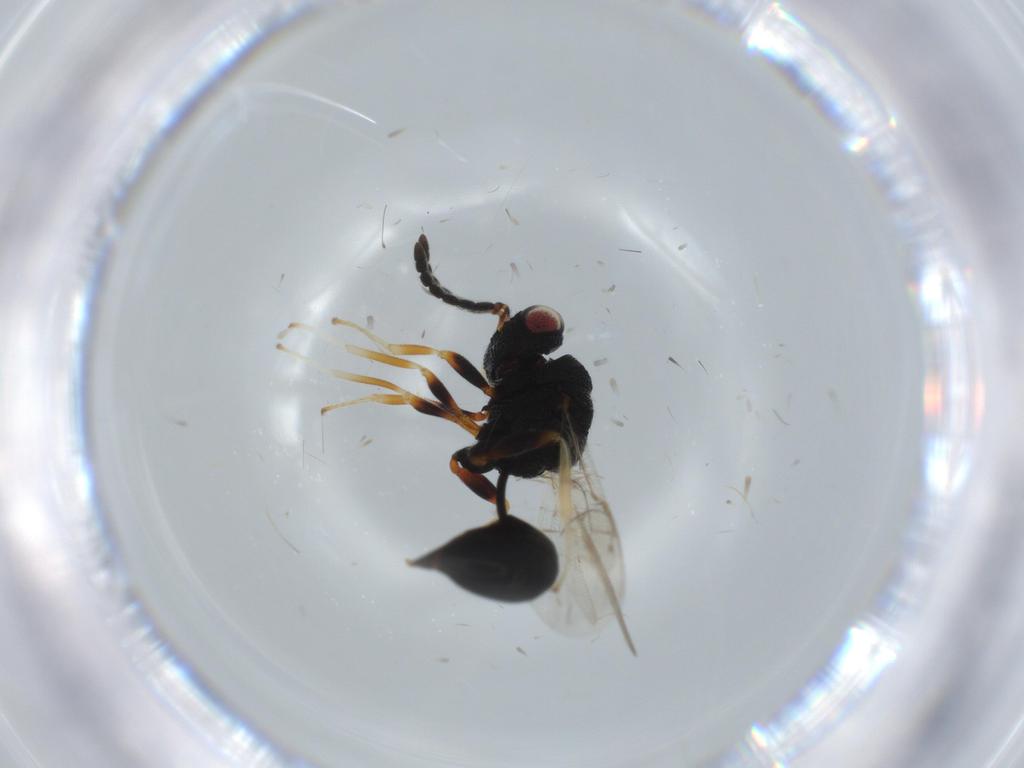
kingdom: Animalia
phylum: Arthropoda
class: Insecta
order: Hymenoptera
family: Eurytomidae
